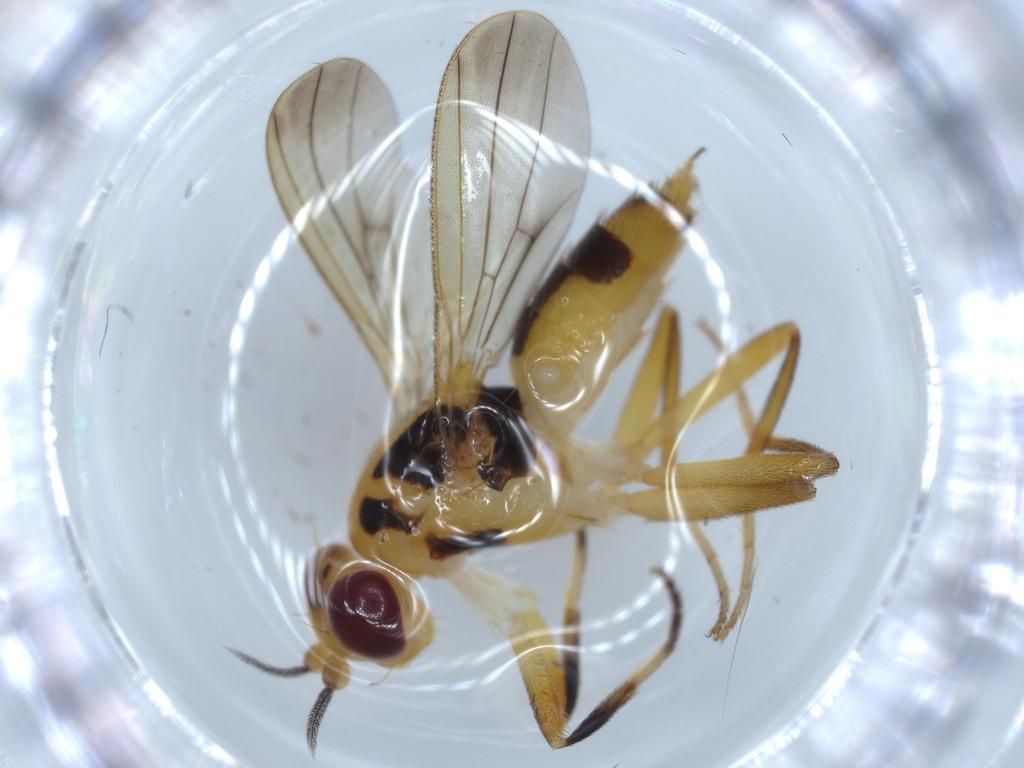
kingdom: Animalia
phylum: Arthropoda
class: Insecta
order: Diptera
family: Hybotidae
